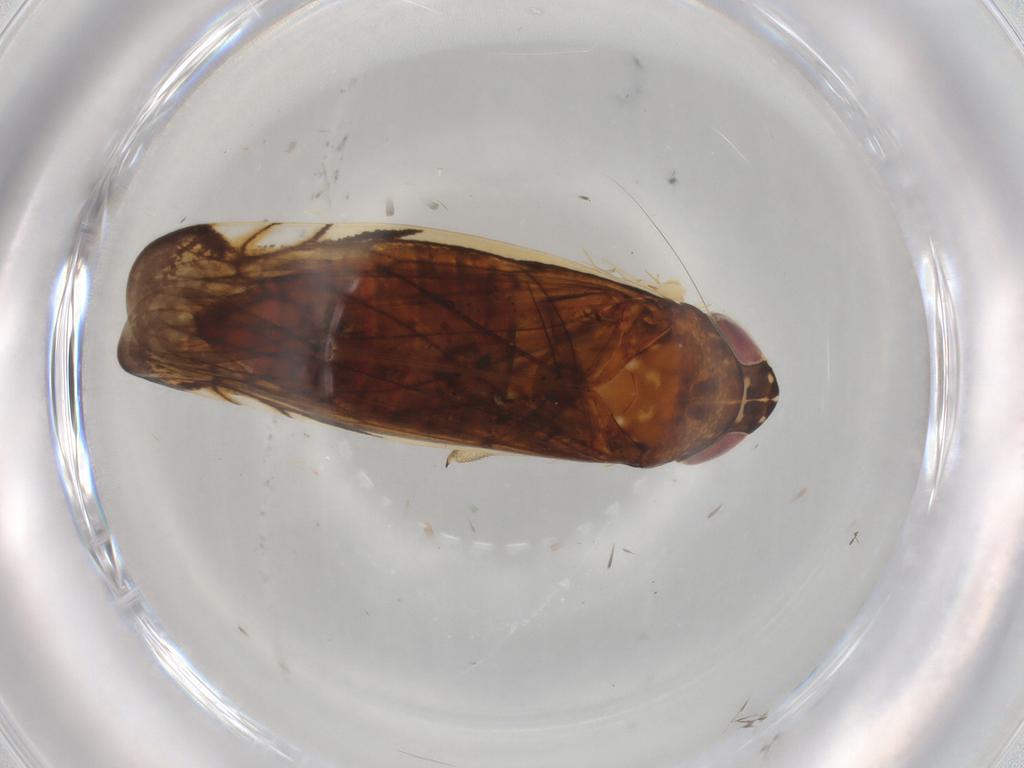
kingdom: Animalia
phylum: Arthropoda
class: Insecta
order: Hemiptera
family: Cicadellidae
